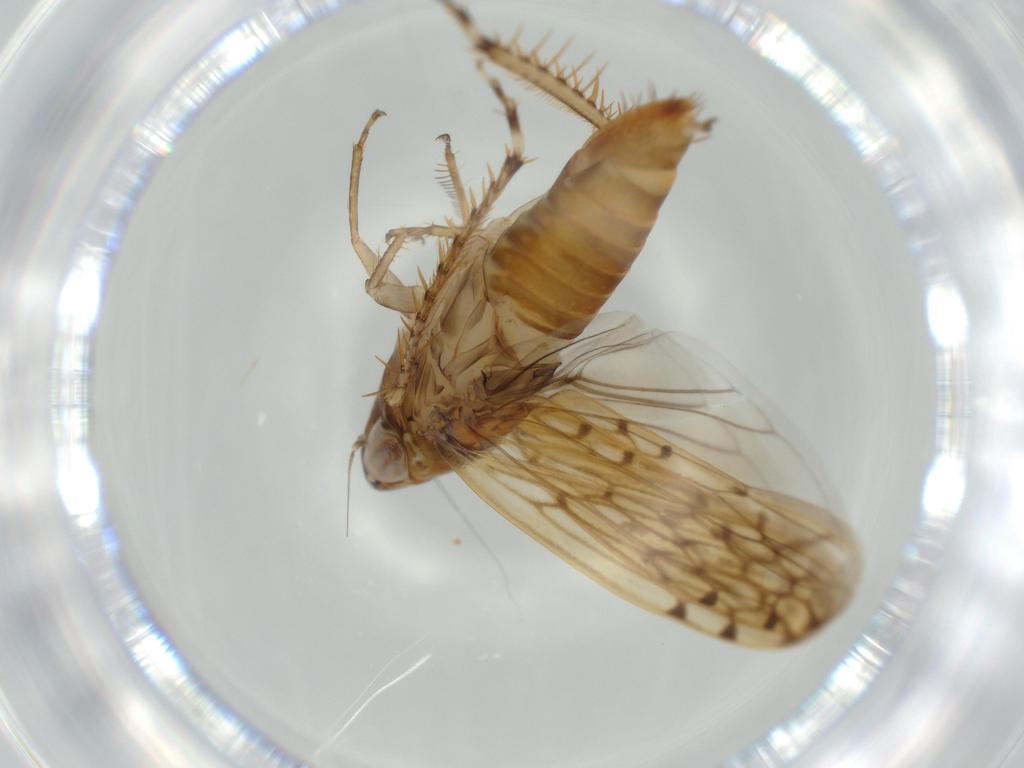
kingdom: Animalia
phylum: Arthropoda
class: Insecta
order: Hemiptera
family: Cicadellidae
